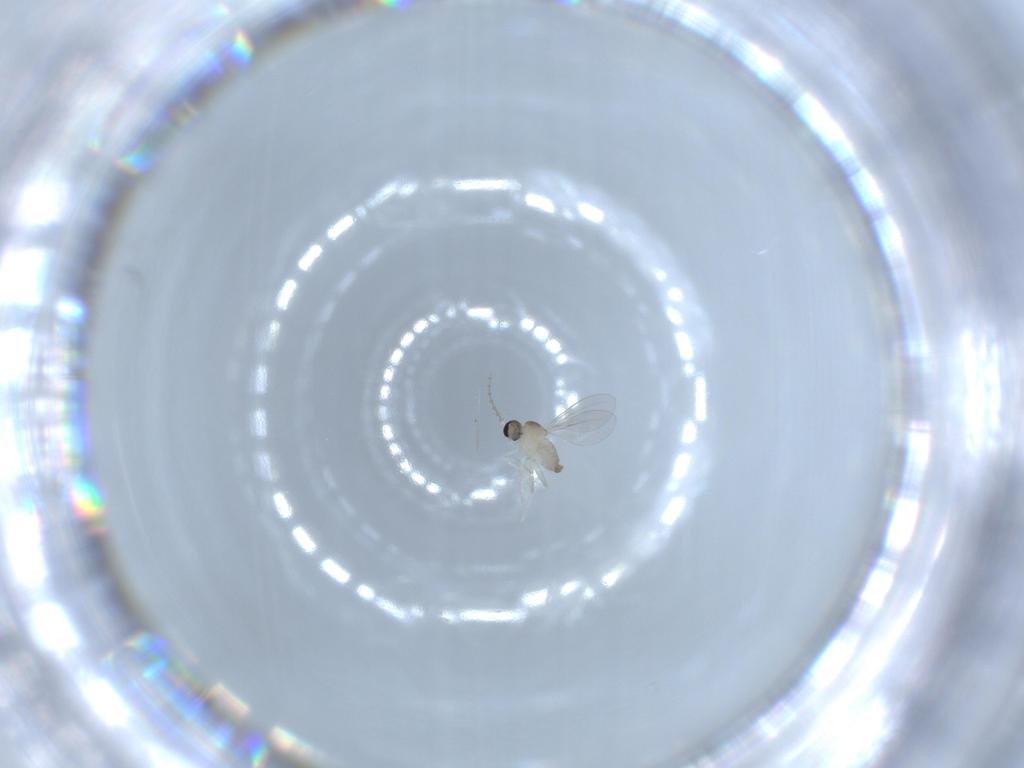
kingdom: Animalia
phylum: Arthropoda
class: Insecta
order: Diptera
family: Cecidomyiidae
